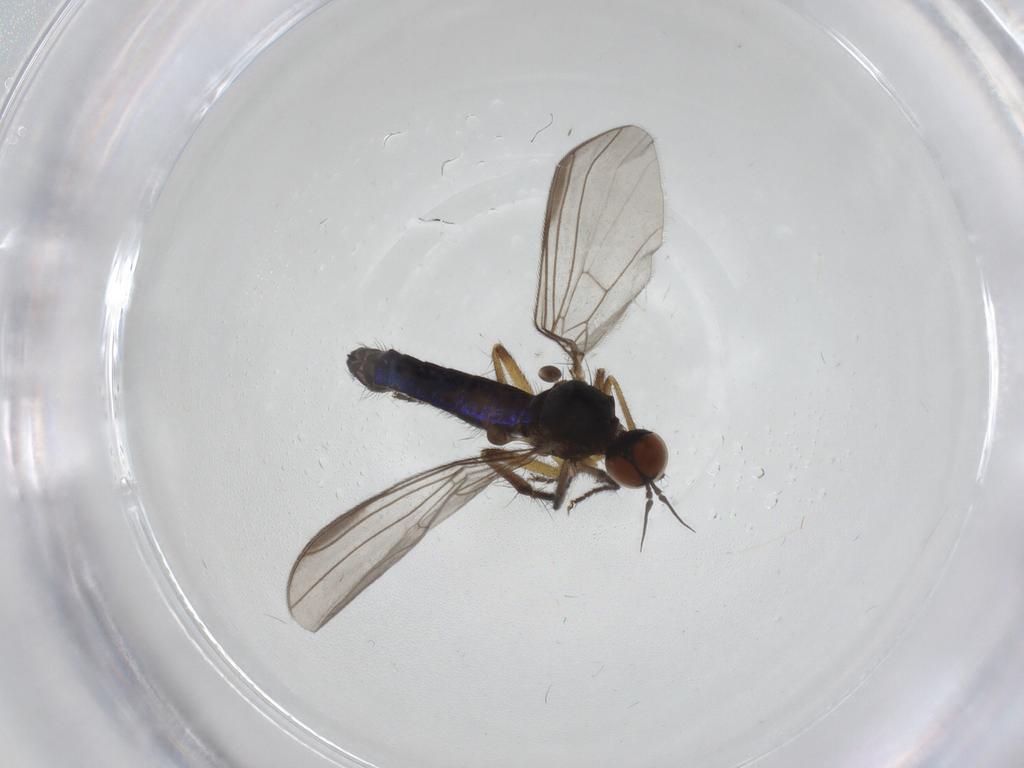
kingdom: Animalia
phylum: Arthropoda
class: Insecta
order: Diptera
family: Empididae
